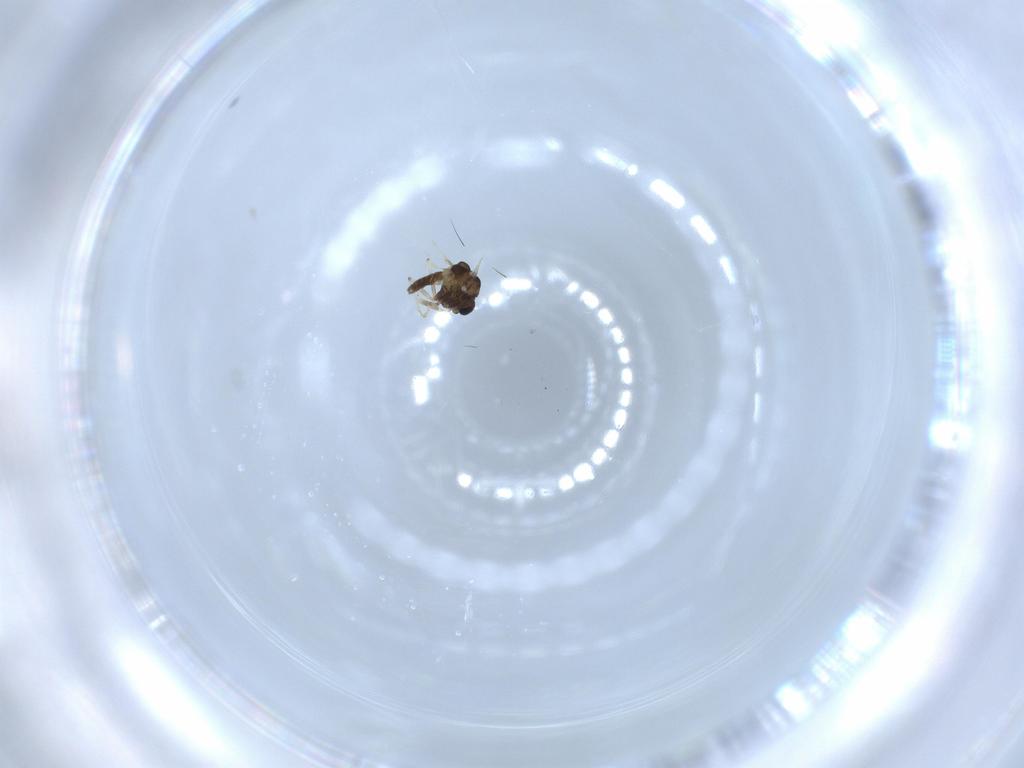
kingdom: Animalia
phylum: Arthropoda
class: Insecta
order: Diptera
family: Chironomidae
